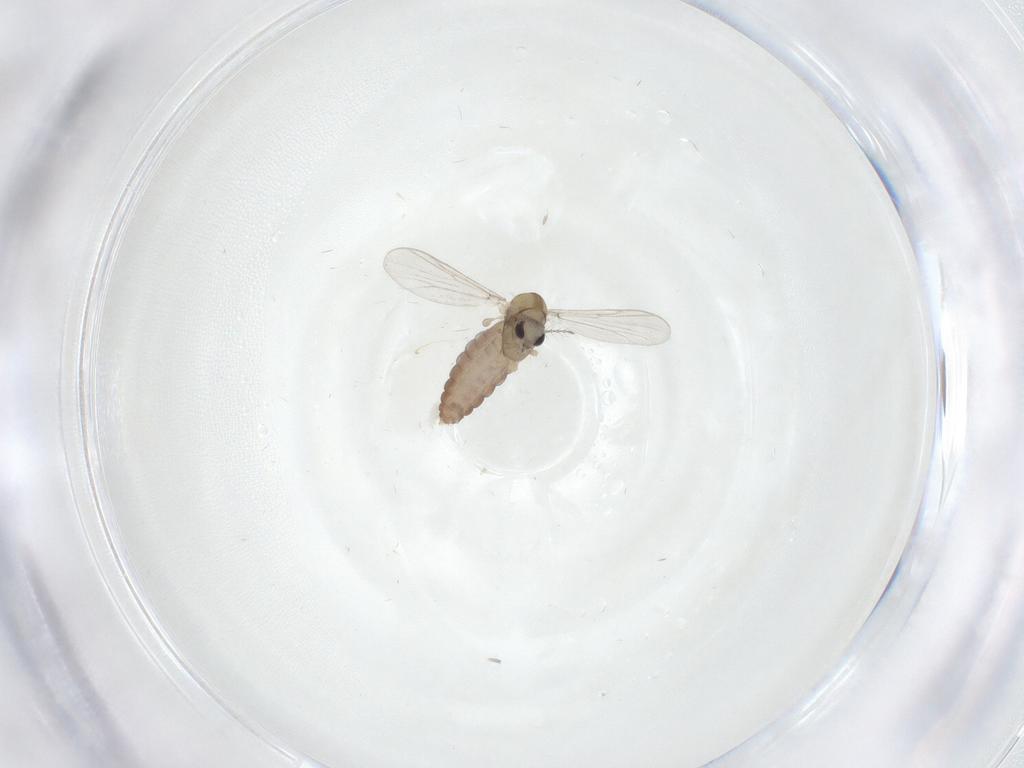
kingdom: Animalia
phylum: Arthropoda
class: Insecta
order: Diptera
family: Chironomidae
